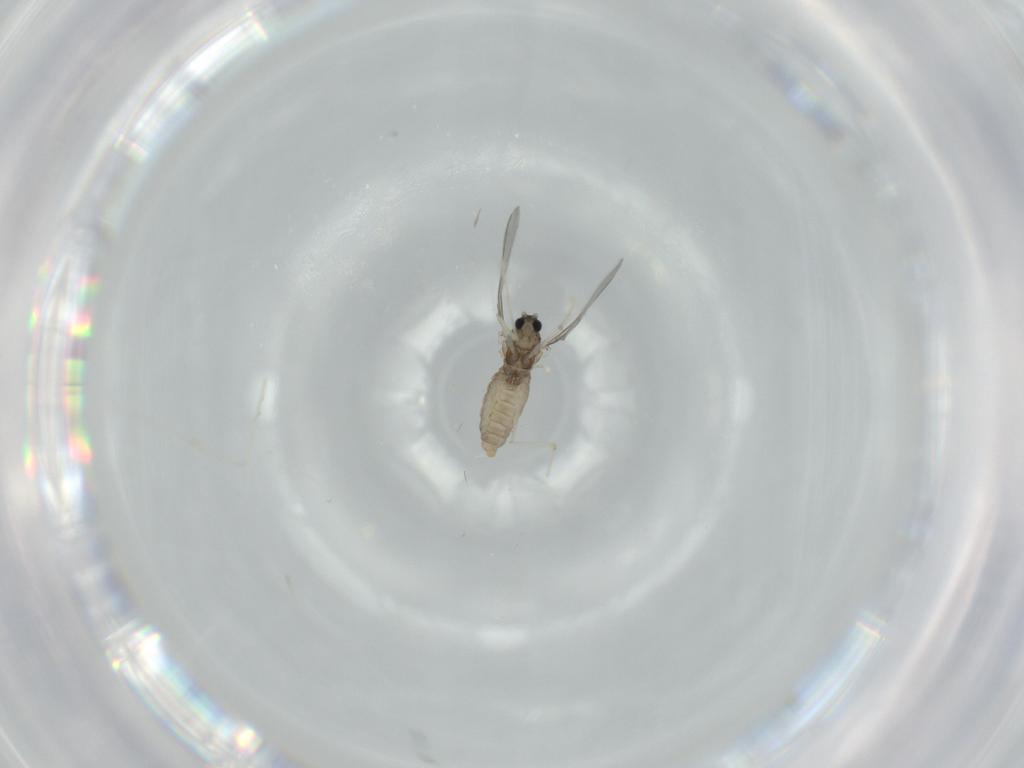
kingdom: Animalia
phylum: Arthropoda
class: Insecta
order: Diptera
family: Cecidomyiidae
